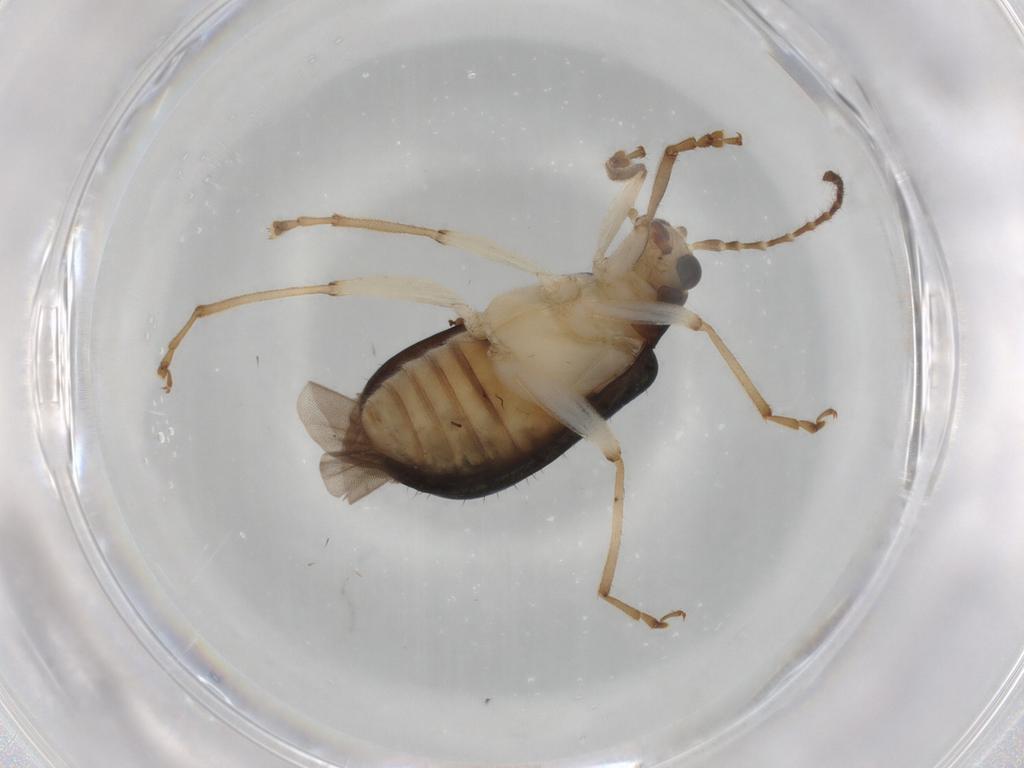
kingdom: Animalia
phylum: Arthropoda
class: Insecta
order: Coleoptera
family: Chrysomelidae
